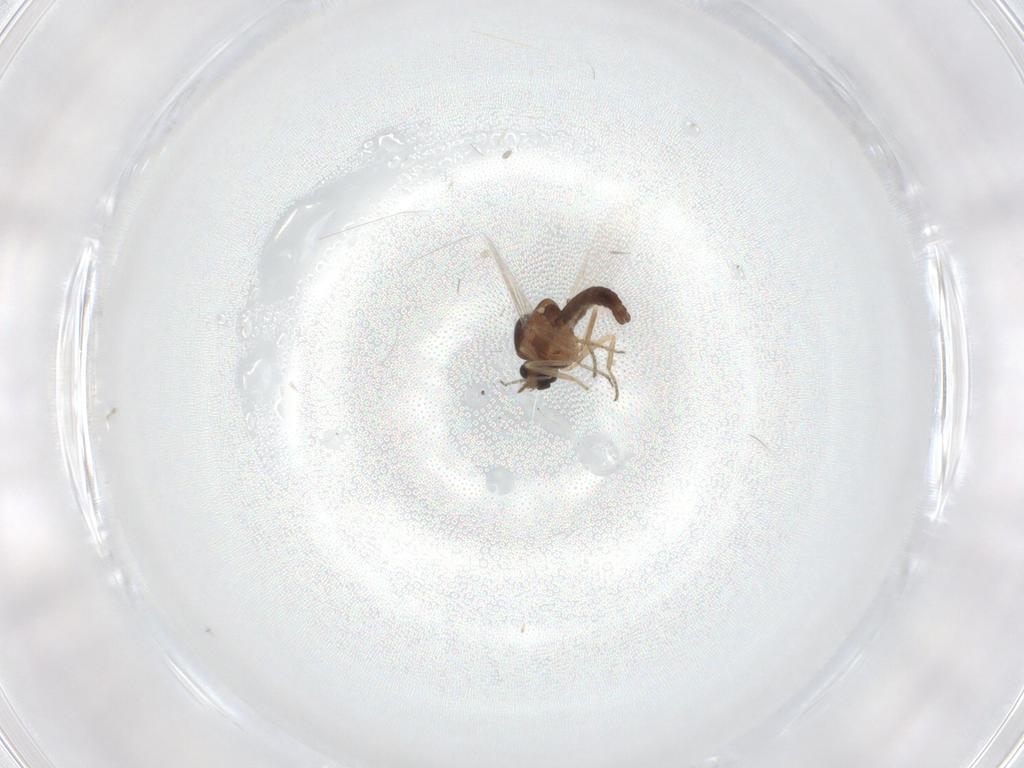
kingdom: Animalia
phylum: Arthropoda
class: Insecta
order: Diptera
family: Ceratopogonidae
